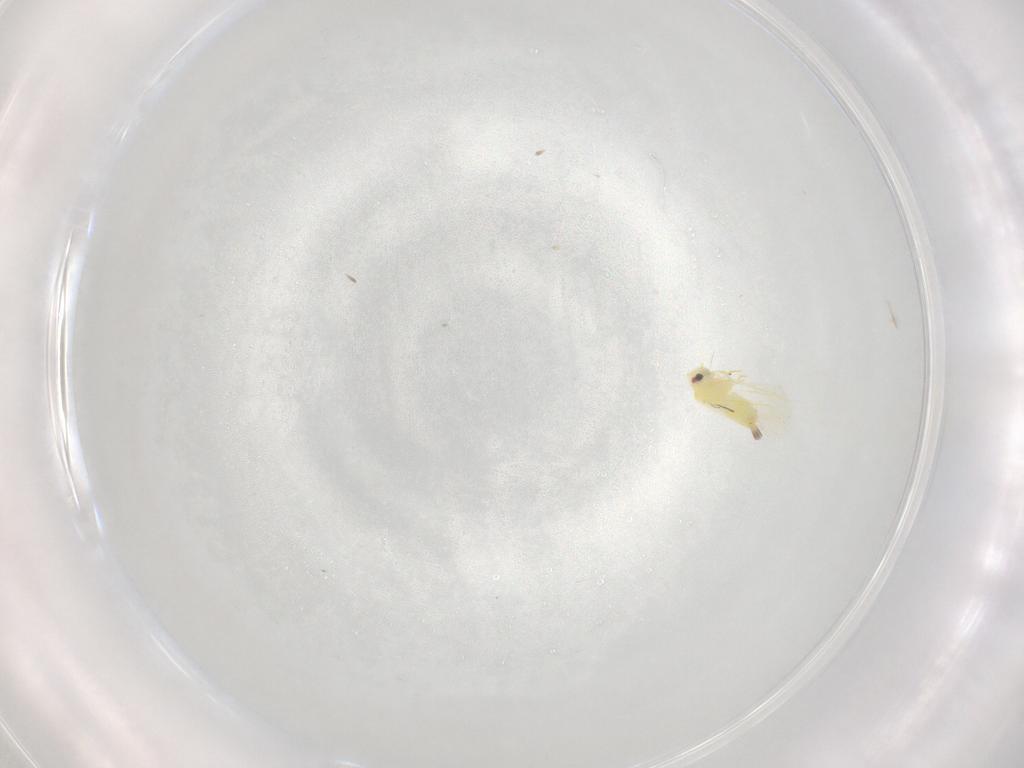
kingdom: Animalia
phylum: Arthropoda
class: Insecta
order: Hemiptera
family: Aleyrodidae
